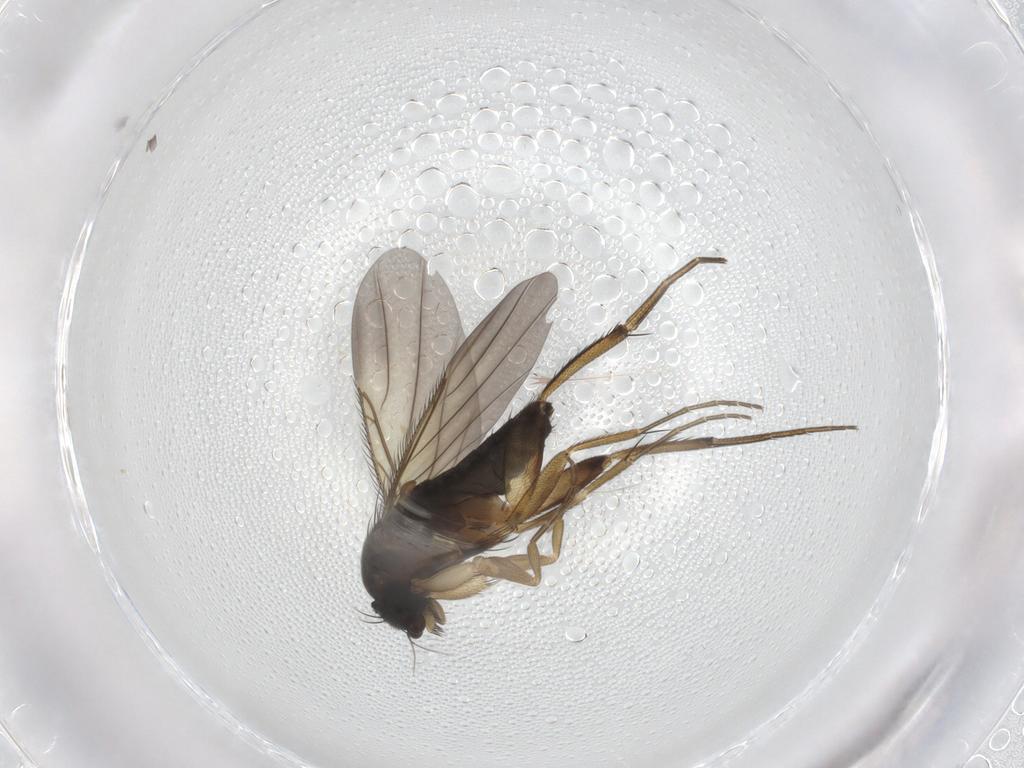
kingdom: Animalia
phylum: Arthropoda
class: Insecta
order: Diptera
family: Phoridae
